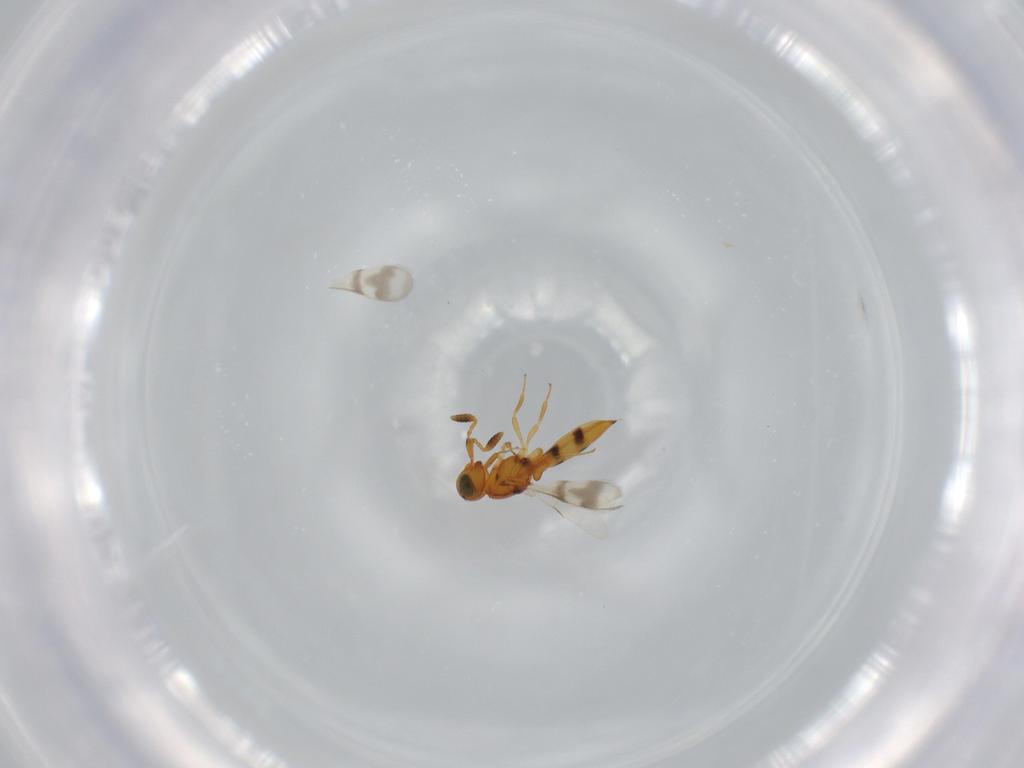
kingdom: Animalia
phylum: Arthropoda
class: Insecta
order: Hymenoptera
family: Scelionidae
